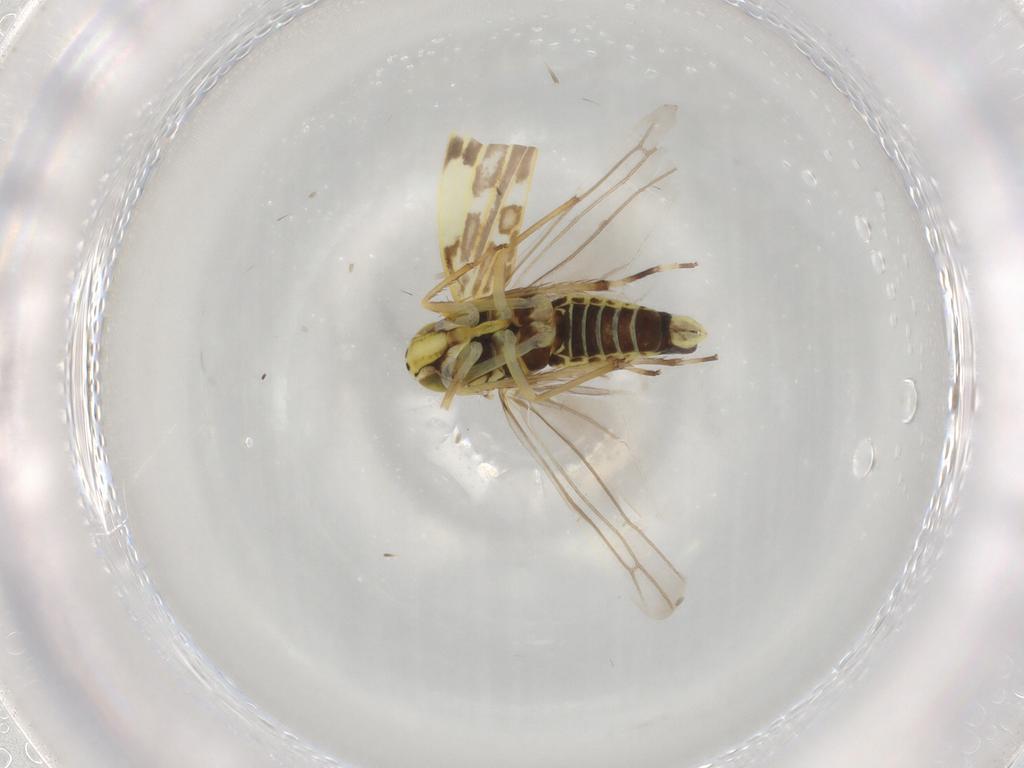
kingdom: Animalia
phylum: Arthropoda
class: Insecta
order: Hemiptera
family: Cicadellidae
